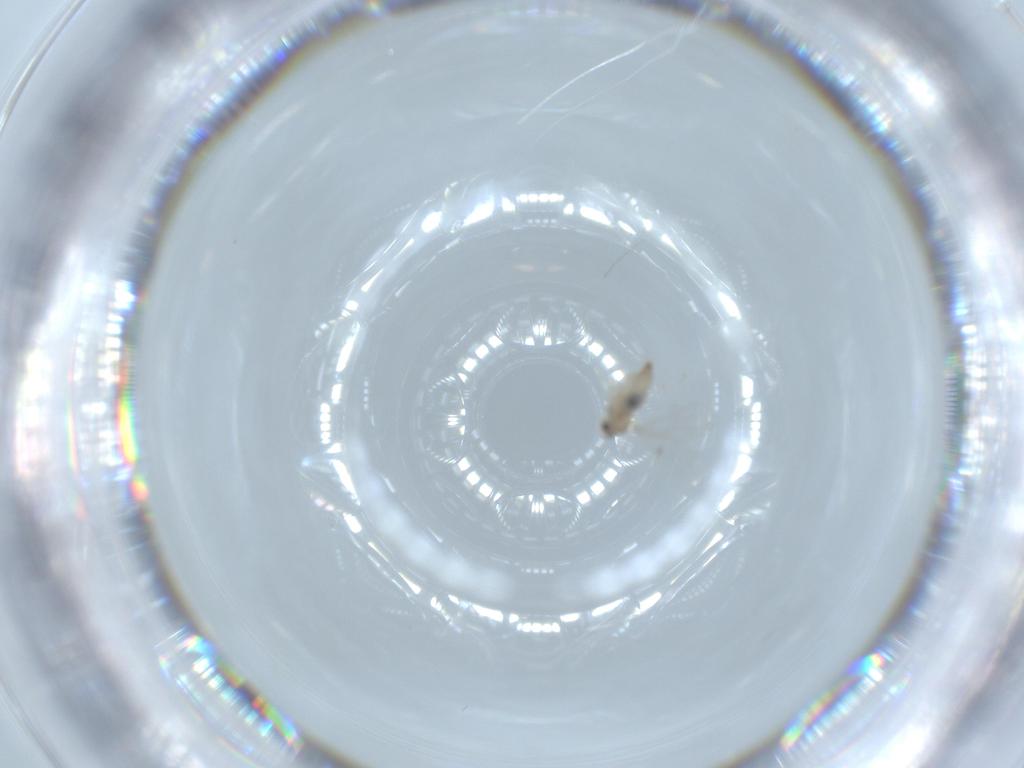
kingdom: Animalia
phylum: Arthropoda
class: Insecta
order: Diptera
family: Cecidomyiidae
